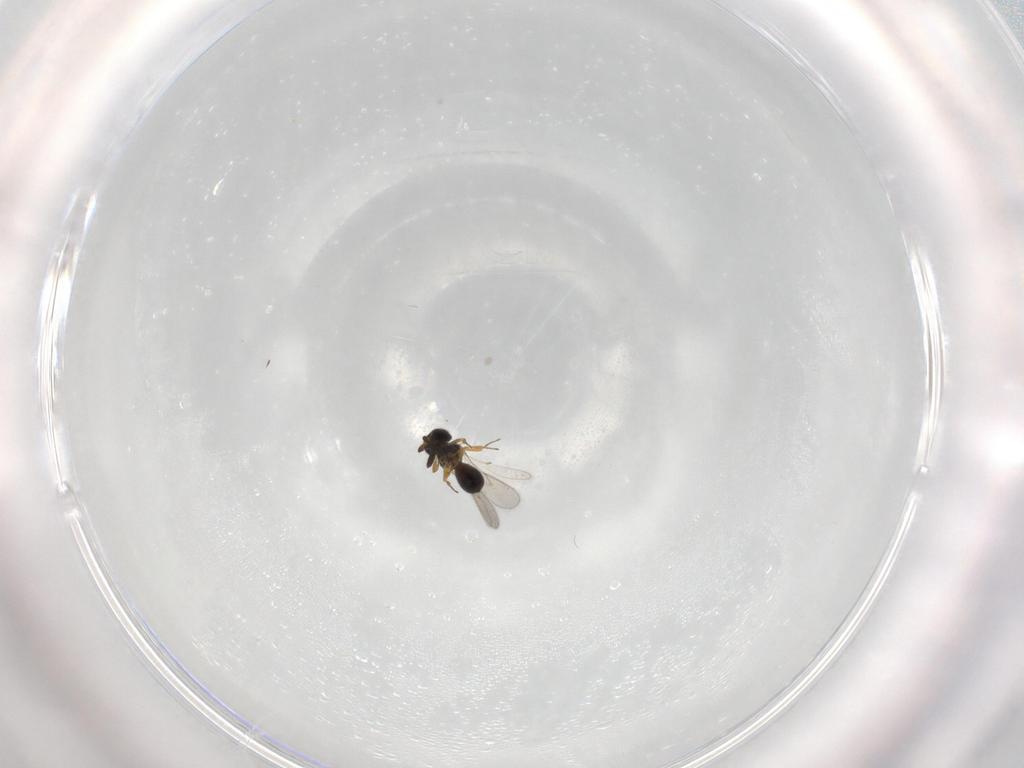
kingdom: Animalia
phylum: Arthropoda
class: Insecta
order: Hymenoptera
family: Scelionidae
